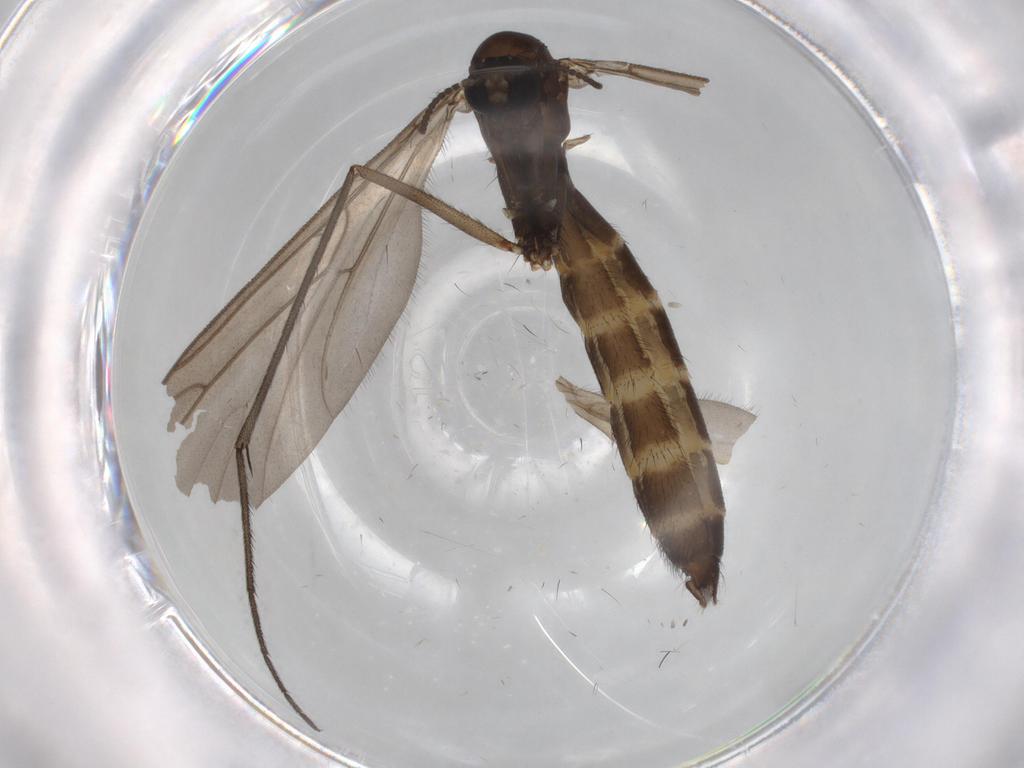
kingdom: Animalia
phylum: Arthropoda
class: Insecta
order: Diptera
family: Ditomyiidae
